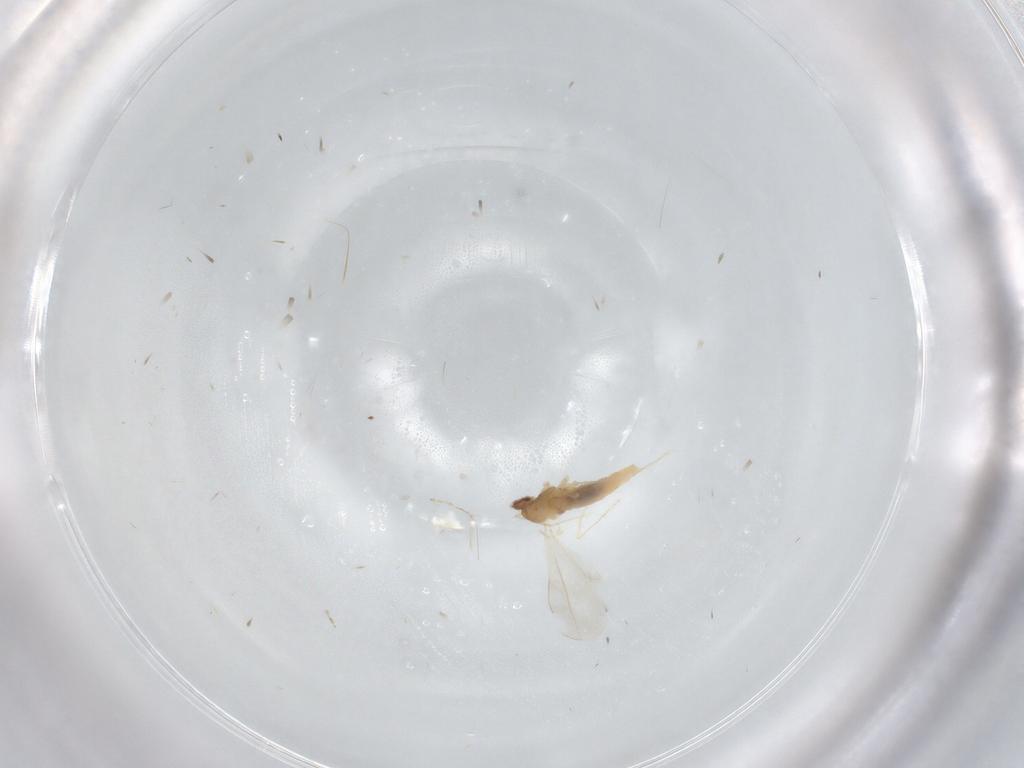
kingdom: Animalia
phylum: Arthropoda
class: Insecta
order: Diptera
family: Cecidomyiidae
